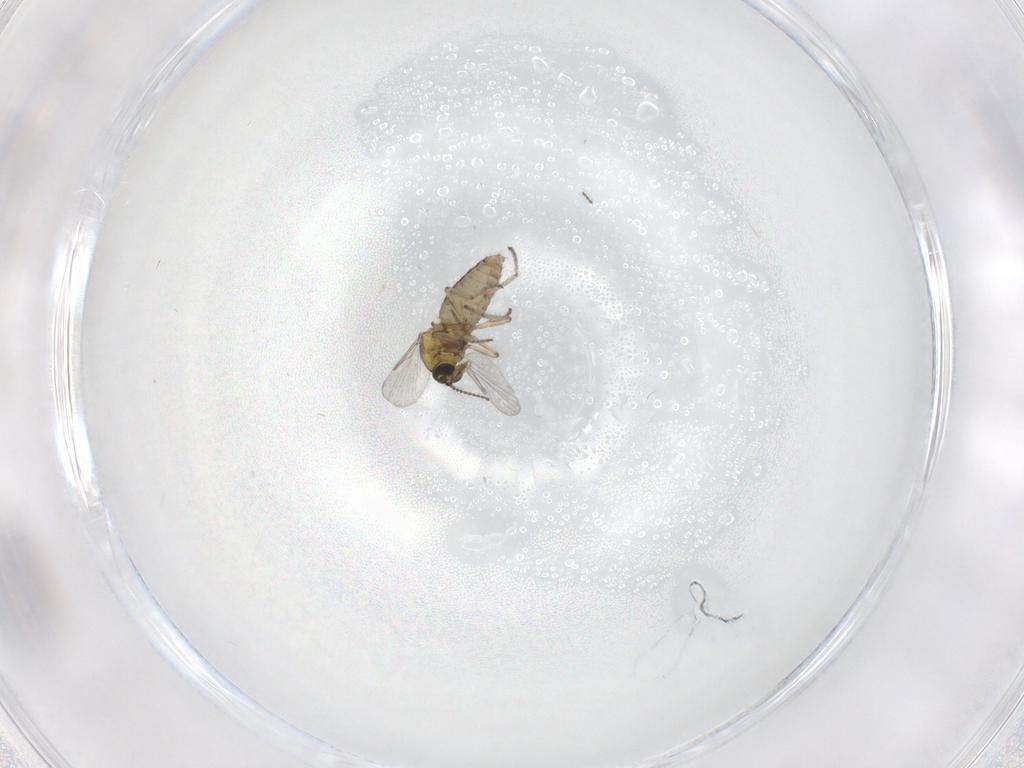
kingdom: Animalia
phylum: Arthropoda
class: Insecta
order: Diptera
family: Ceratopogonidae
